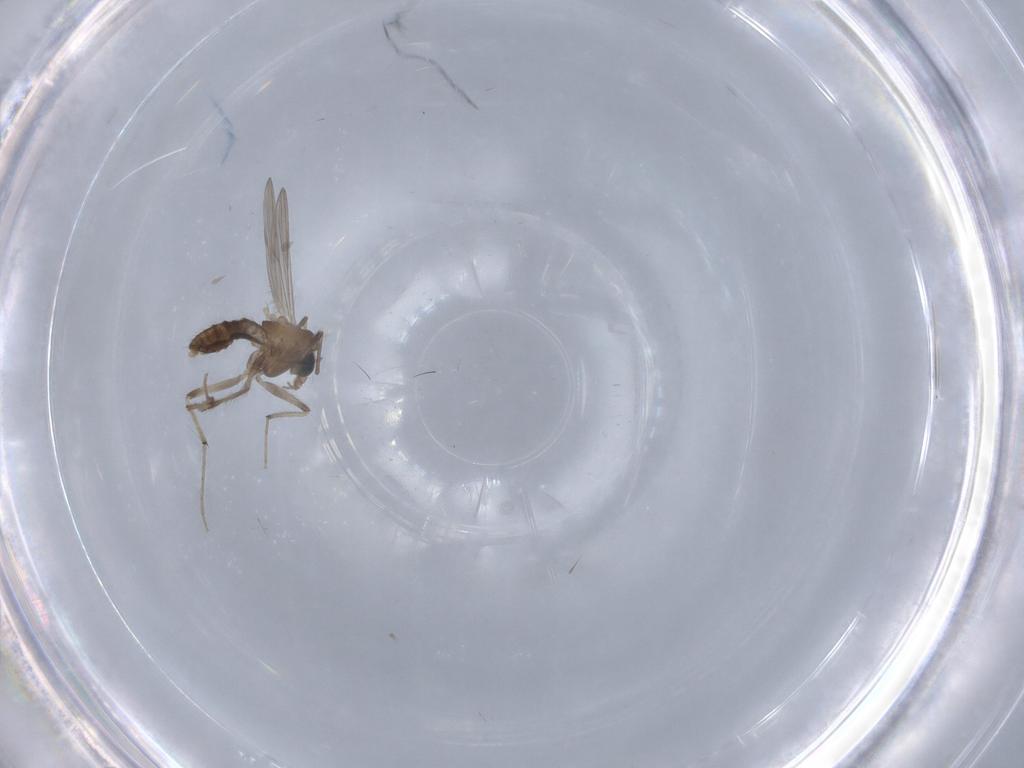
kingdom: Animalia
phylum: Arthropoda
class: Insecta
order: Diptera
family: Chironomidae
